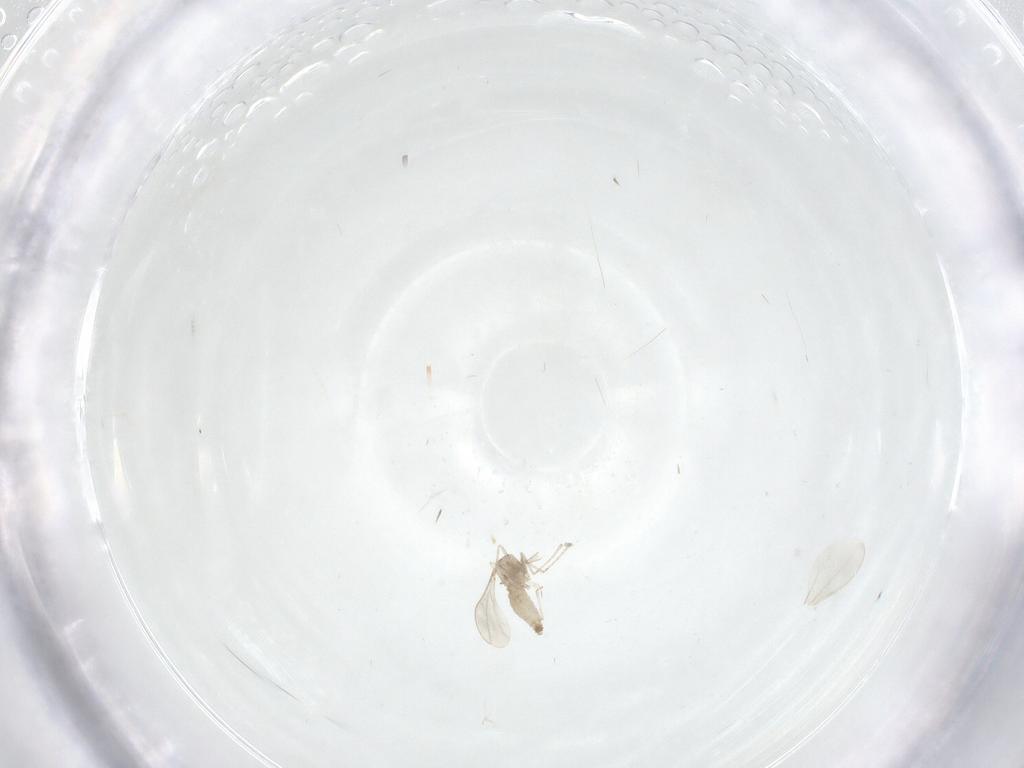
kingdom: Animalia
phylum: Arthropoda
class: Insecta
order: Diptera
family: Cecidomyiidae
